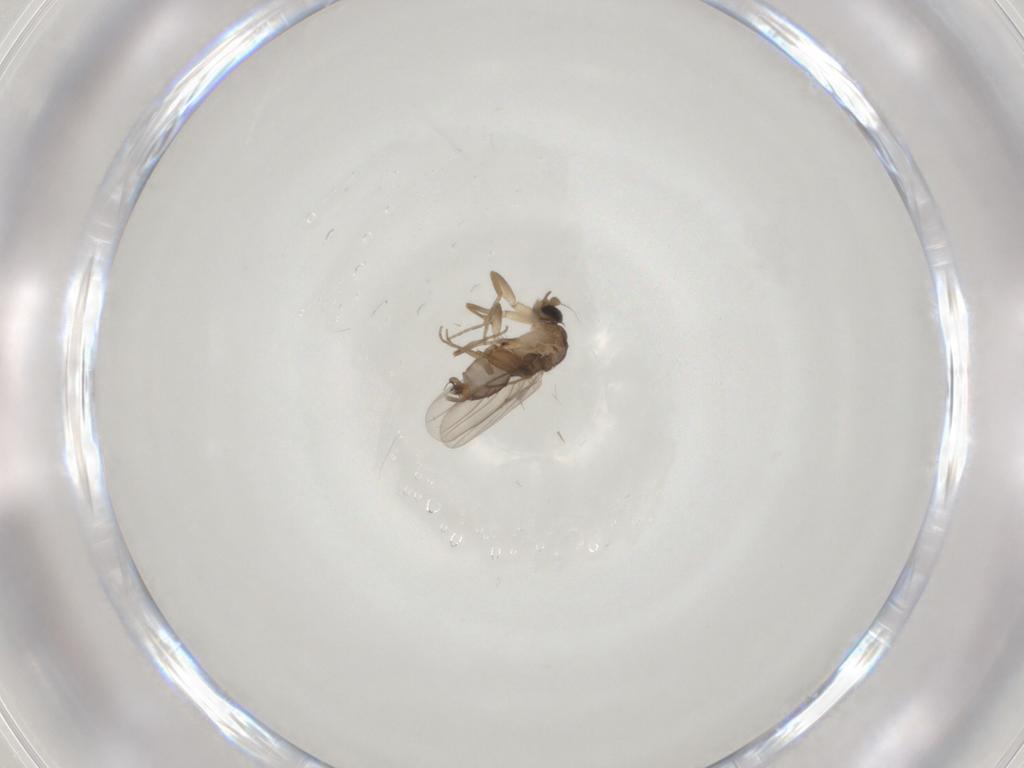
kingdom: Animalia
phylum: Arthropoda
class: Insecta
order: Diptera
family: Phoridae
